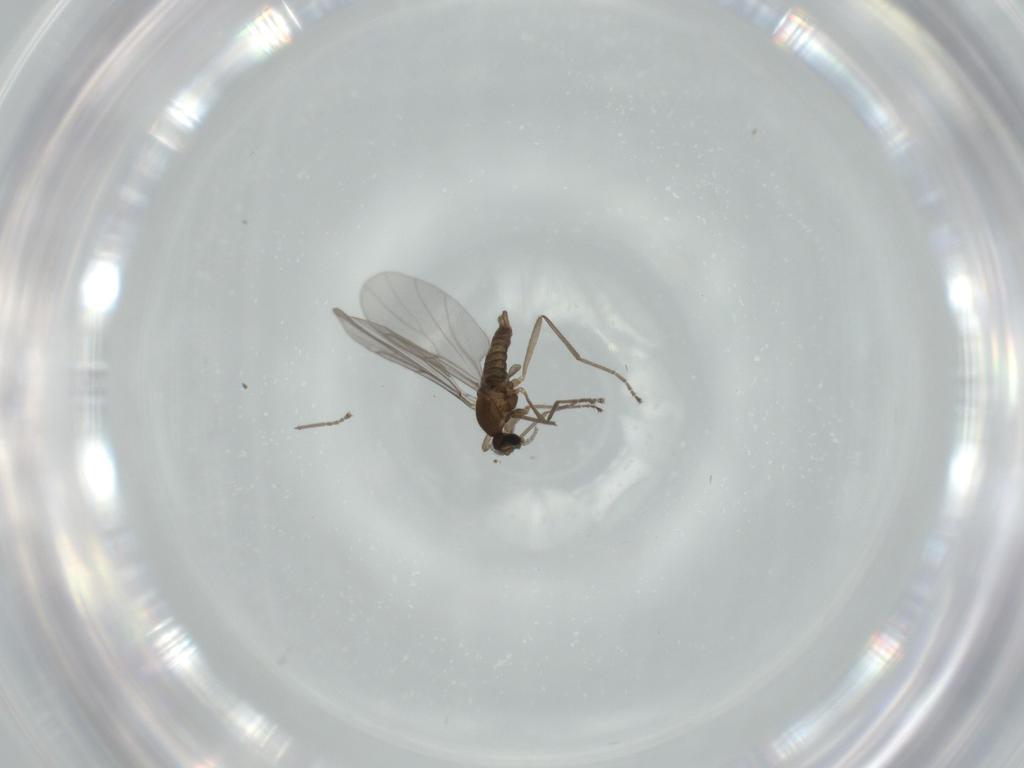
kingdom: Animalia
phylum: Arthropoda
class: Insecta
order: Diptera
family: Cecidomyiidae
